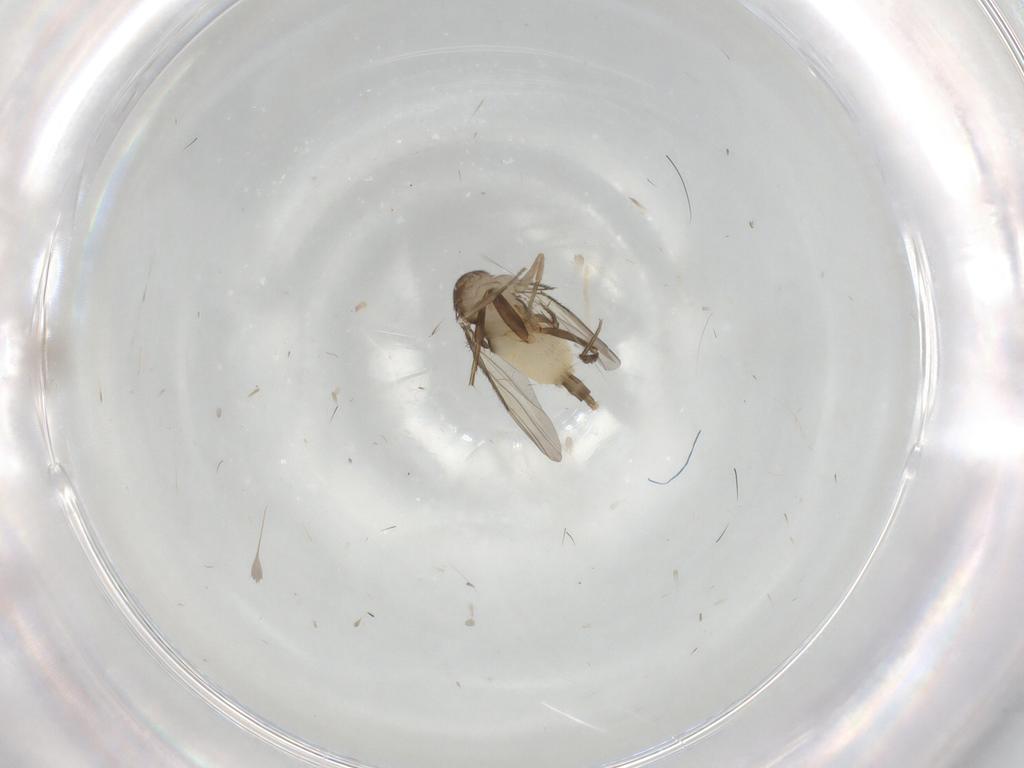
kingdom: Animalia
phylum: Arthropoda
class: Insecta
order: Diptera
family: Phoridae
